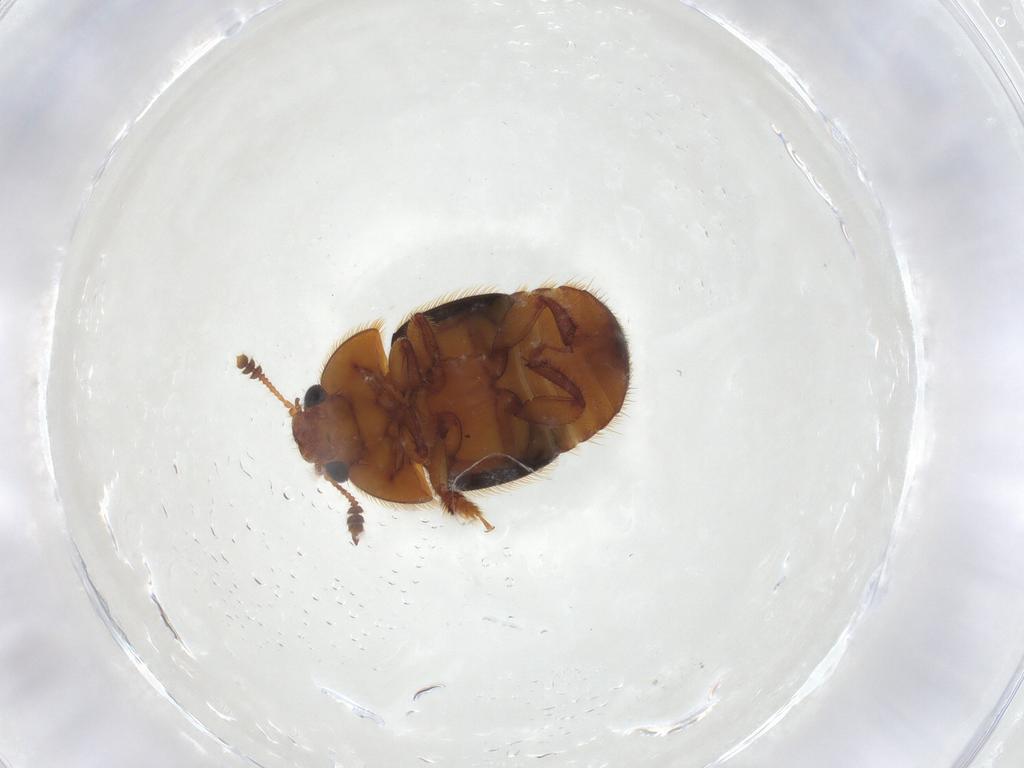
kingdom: Animalia
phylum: Arthropoda
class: Insecta
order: Coleoptera
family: Nitidulidae
